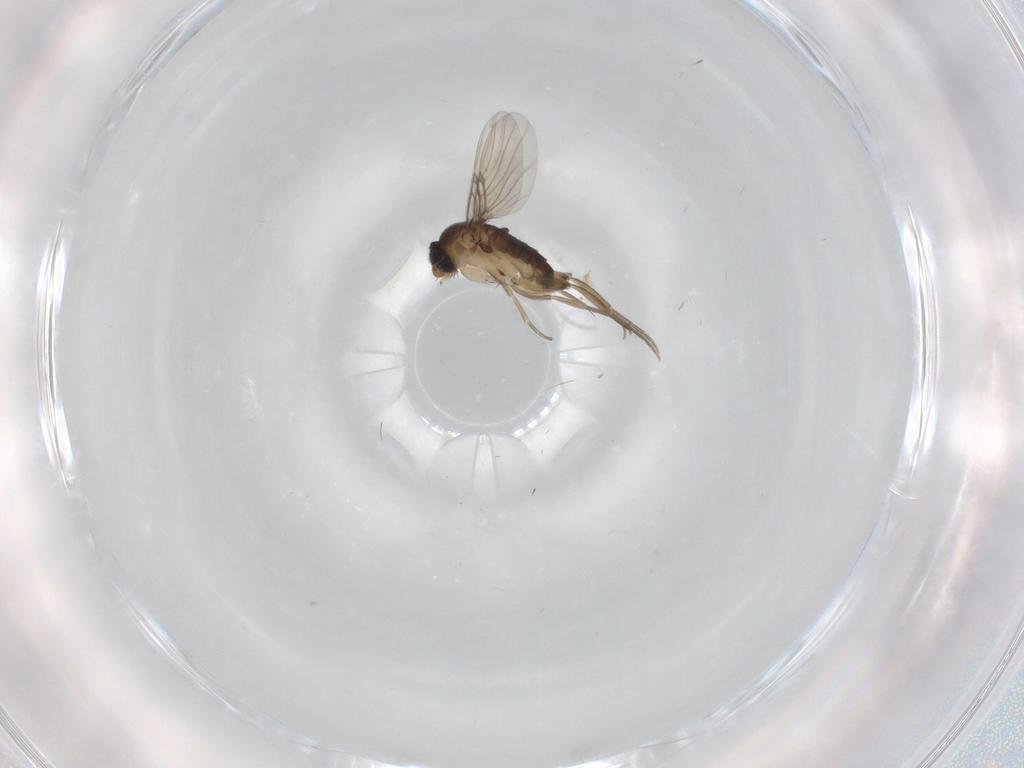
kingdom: Animalia
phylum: Arthropoda
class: Insecta
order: Diptera
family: Phoridae
